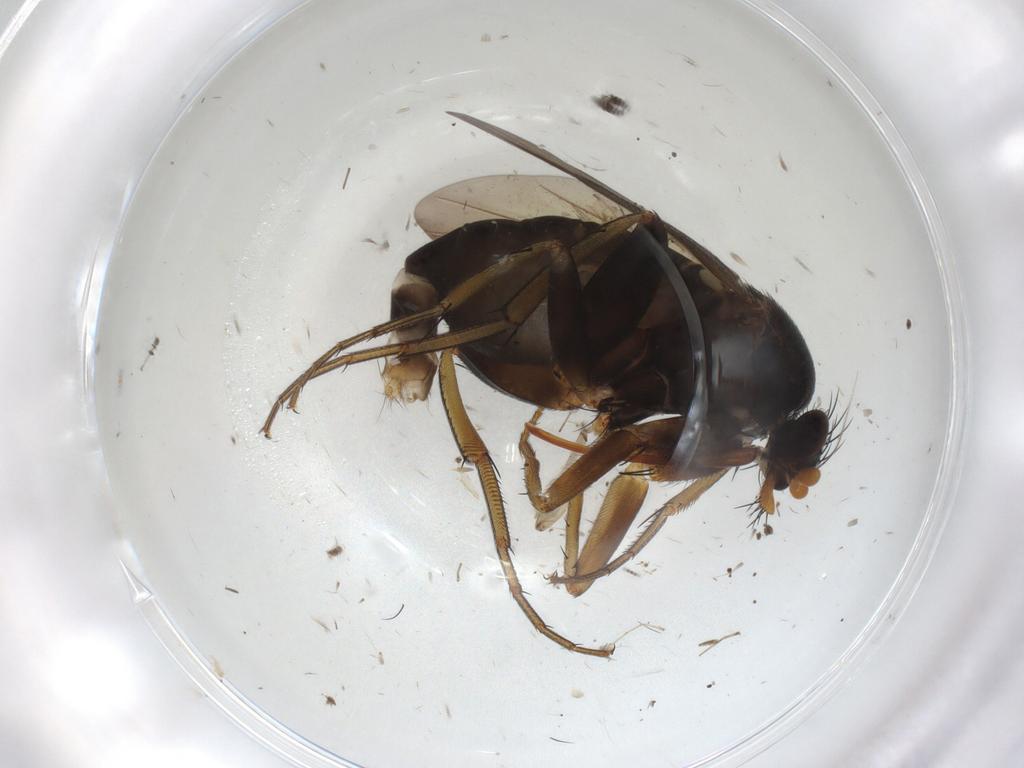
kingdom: Animalia
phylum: Arthropoda
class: Insecta
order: Diptera
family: Phoridae
